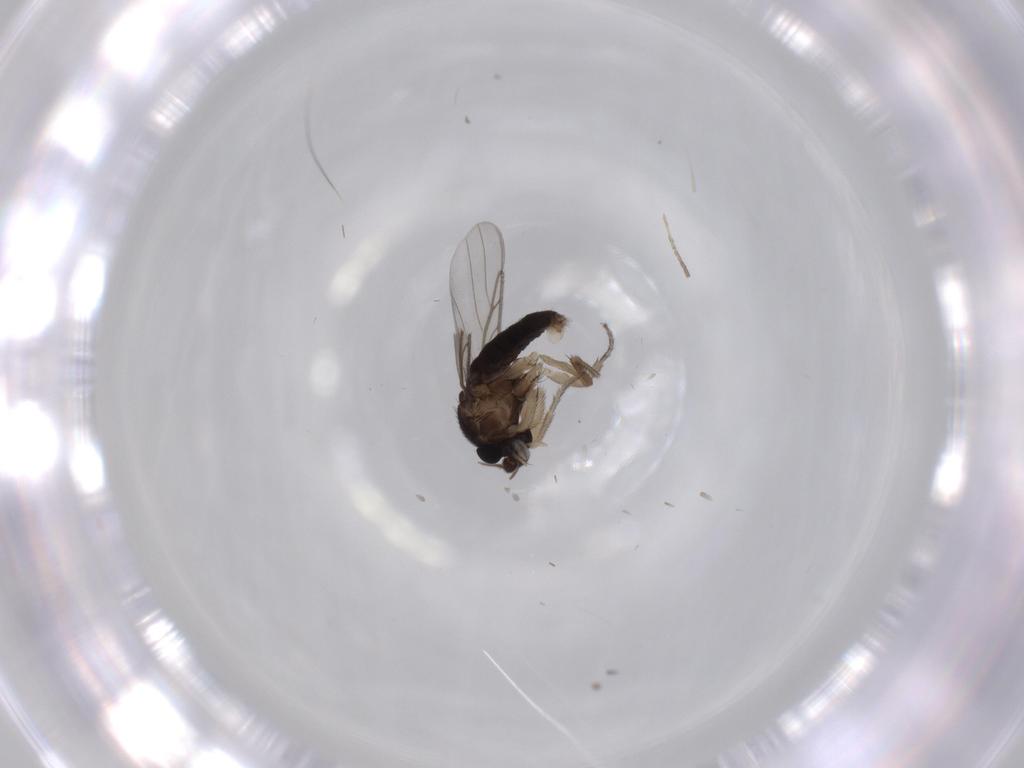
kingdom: Animalia
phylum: Arthropoda
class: Insecta
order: Diptera
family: Phoridae
